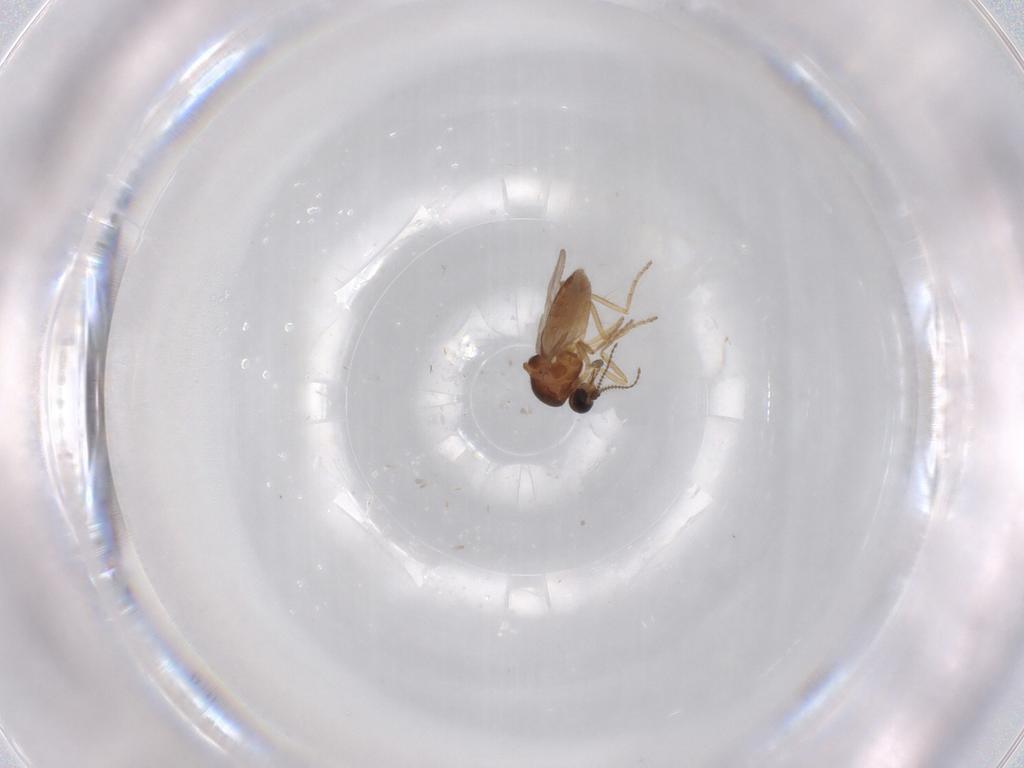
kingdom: Animalia
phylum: Arthropoda
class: Insecta
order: Diptera
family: Ceratopogonidae
